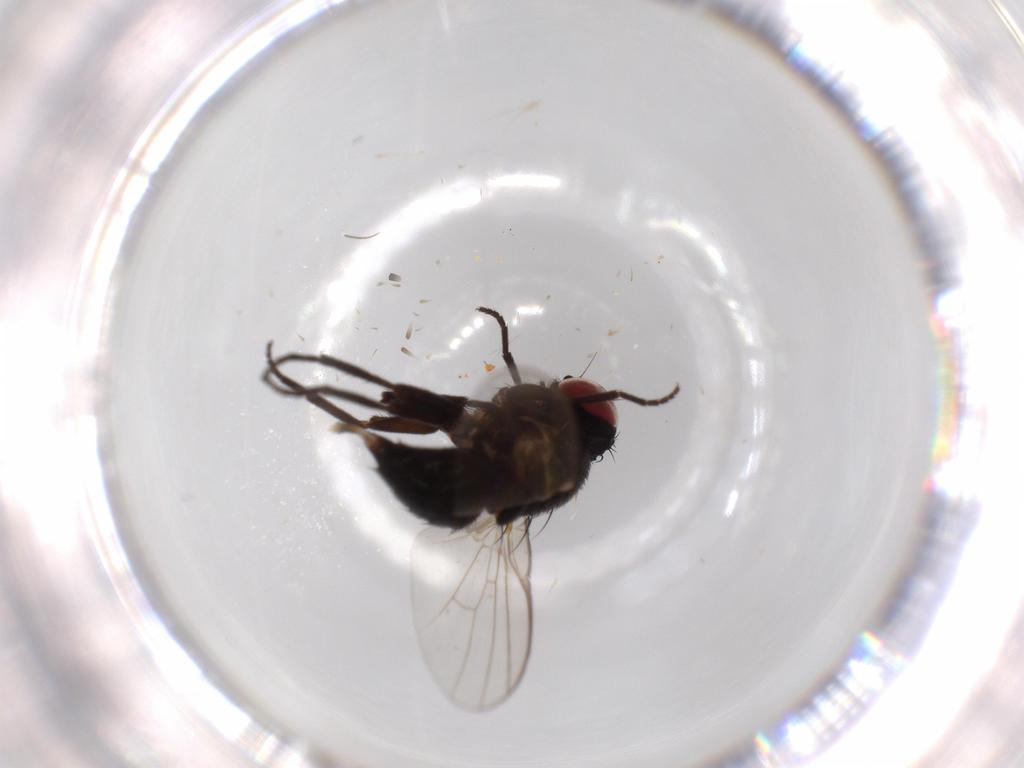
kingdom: Animalia
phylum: Arthropoda
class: Insecta
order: Diptera
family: Agromyzidae
